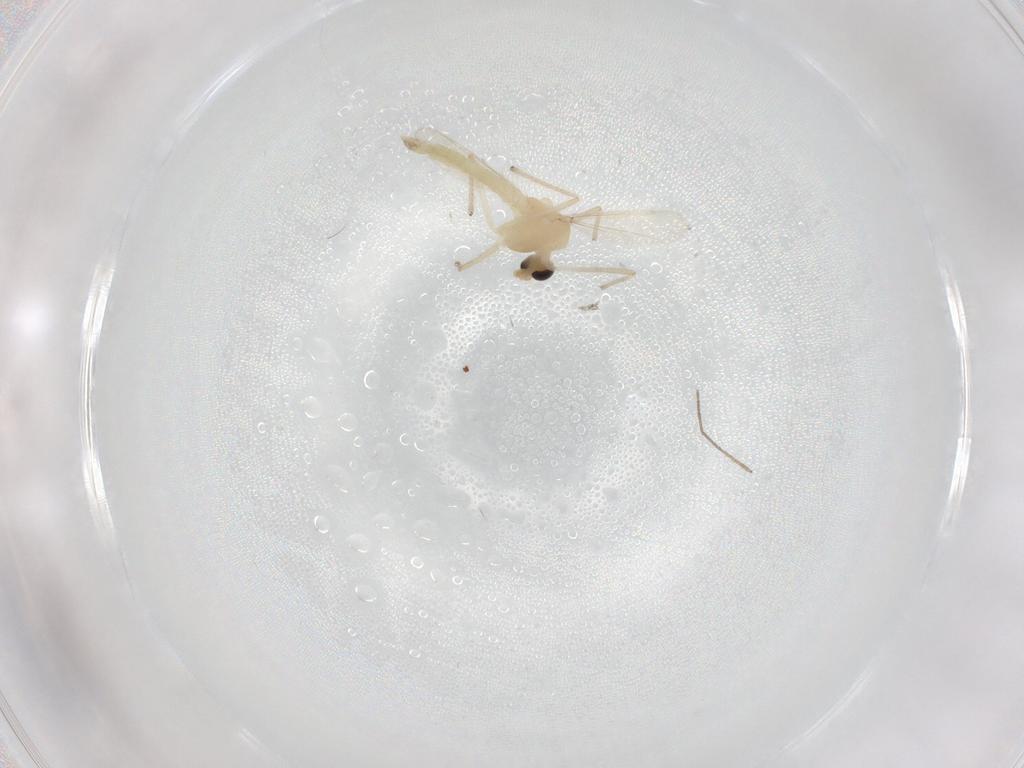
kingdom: Animalia
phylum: Arthropoda
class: Insecta
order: Diptera
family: Chironomidae
